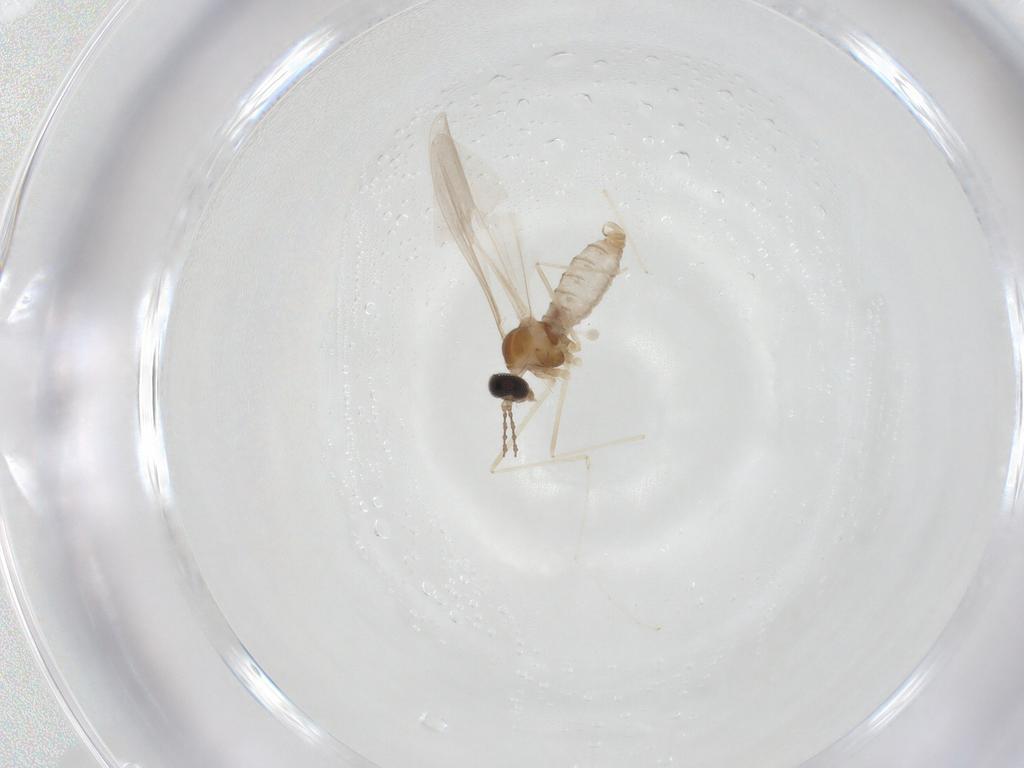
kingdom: Animalia
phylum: Arthropoda
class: Insecta
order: Diptera
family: Cecidomyiidae
